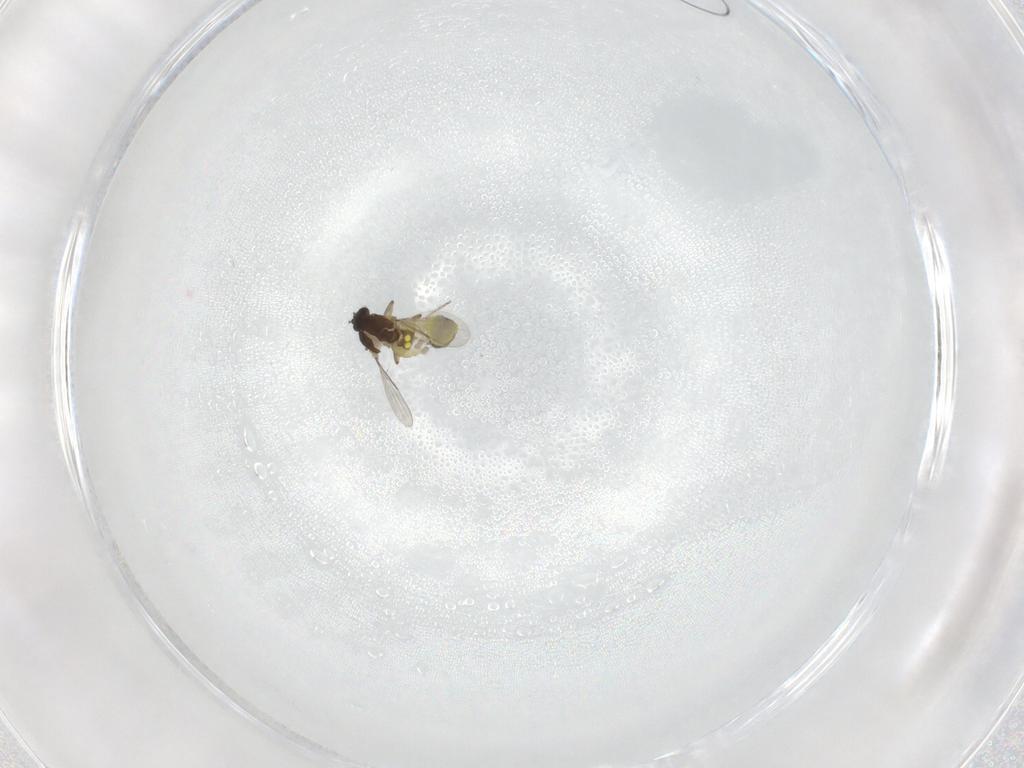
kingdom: Animalia
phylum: Arthropoda
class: Insecta
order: Diptera
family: Ceratopogonidae
